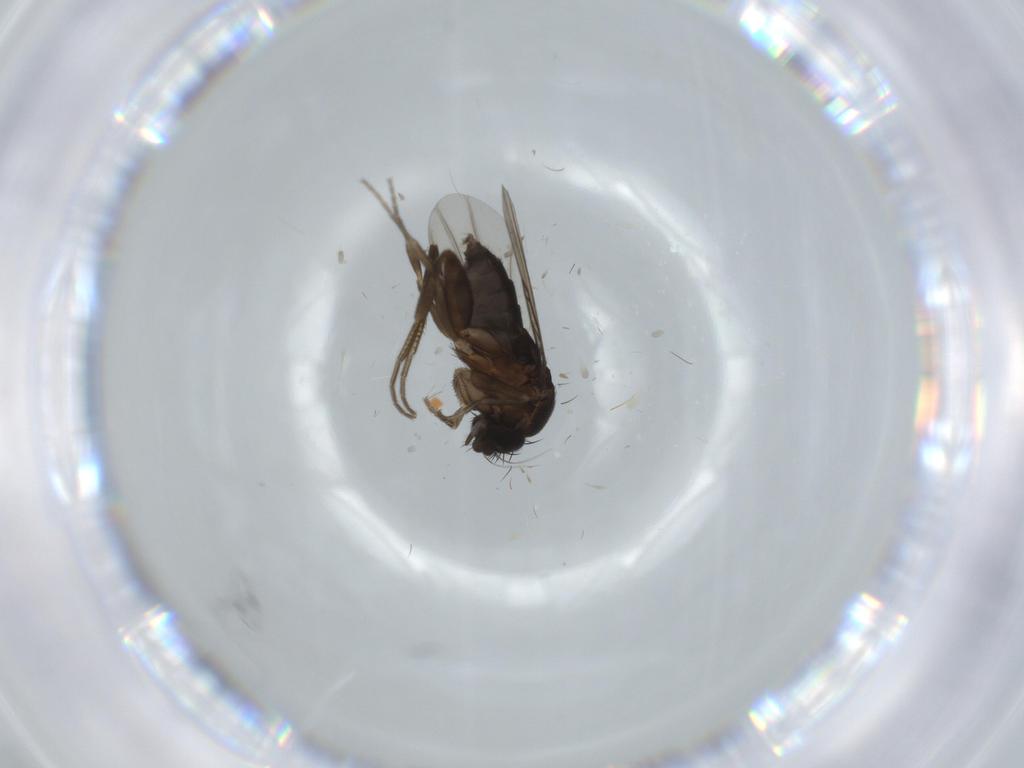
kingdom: Animalia
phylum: Arthropoda
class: Insecta
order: Diptera
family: Phoridae
